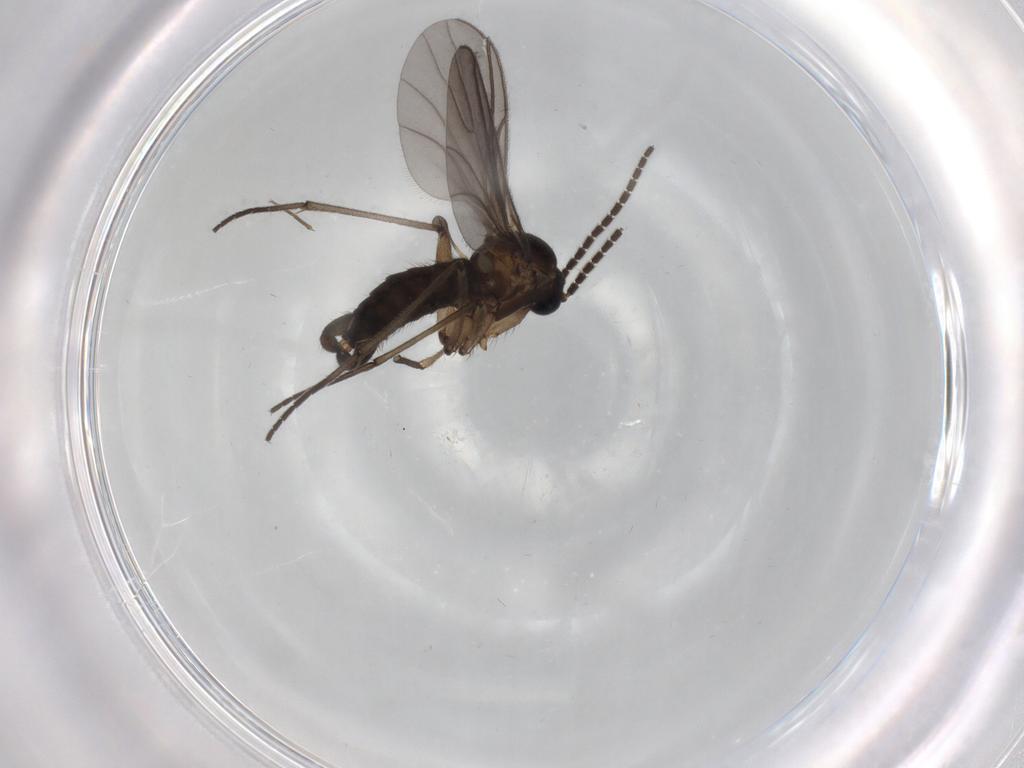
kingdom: Animalia
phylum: Arthropoda
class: Insecta
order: Diptera
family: Sciaridae
